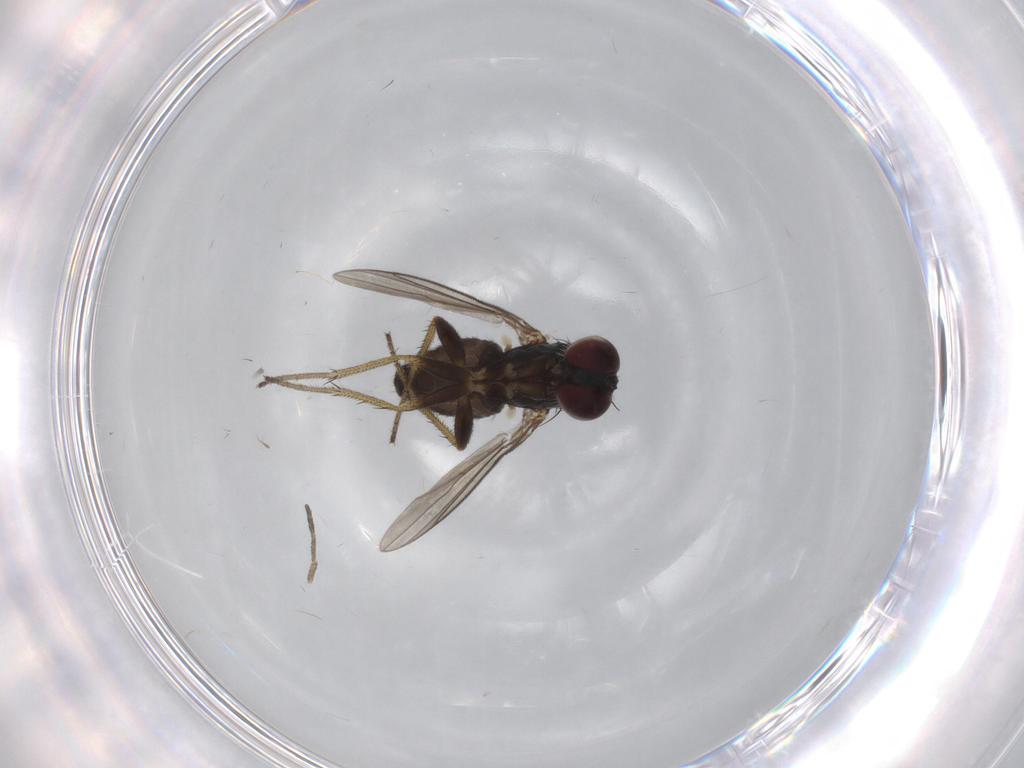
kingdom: Animalia
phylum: Arthropoda
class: Insecta
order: Diptera
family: Chironomidae
